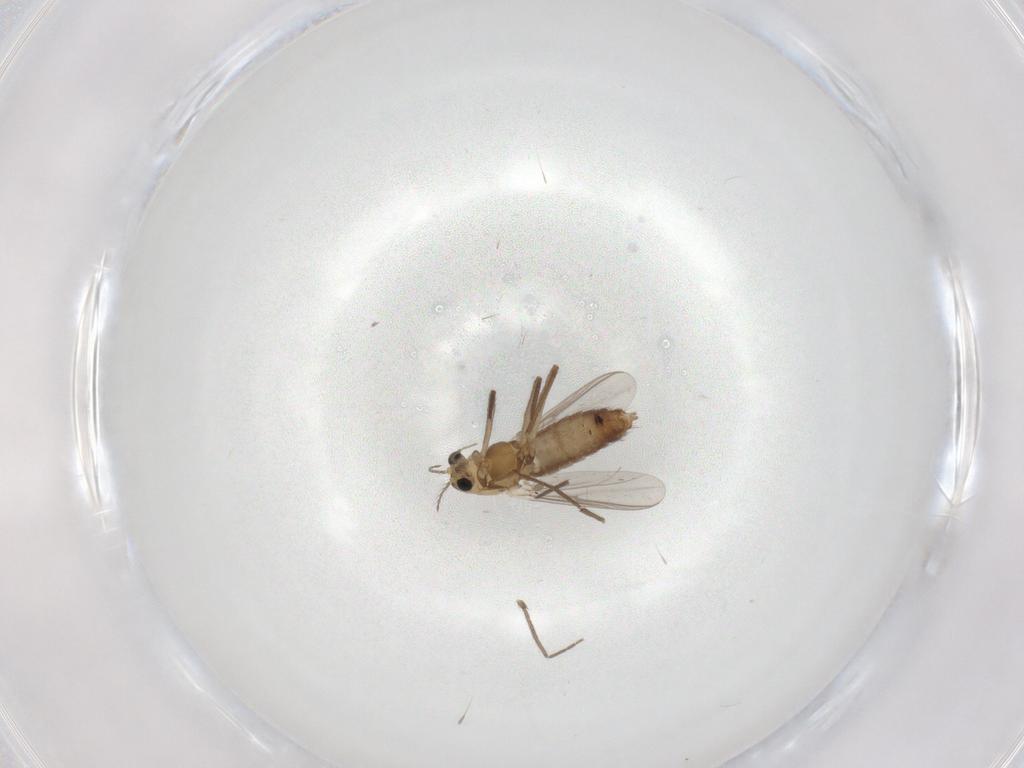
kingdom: Animalia
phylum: Arthropoda
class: Insecta
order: Diptera
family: Chironomidae
